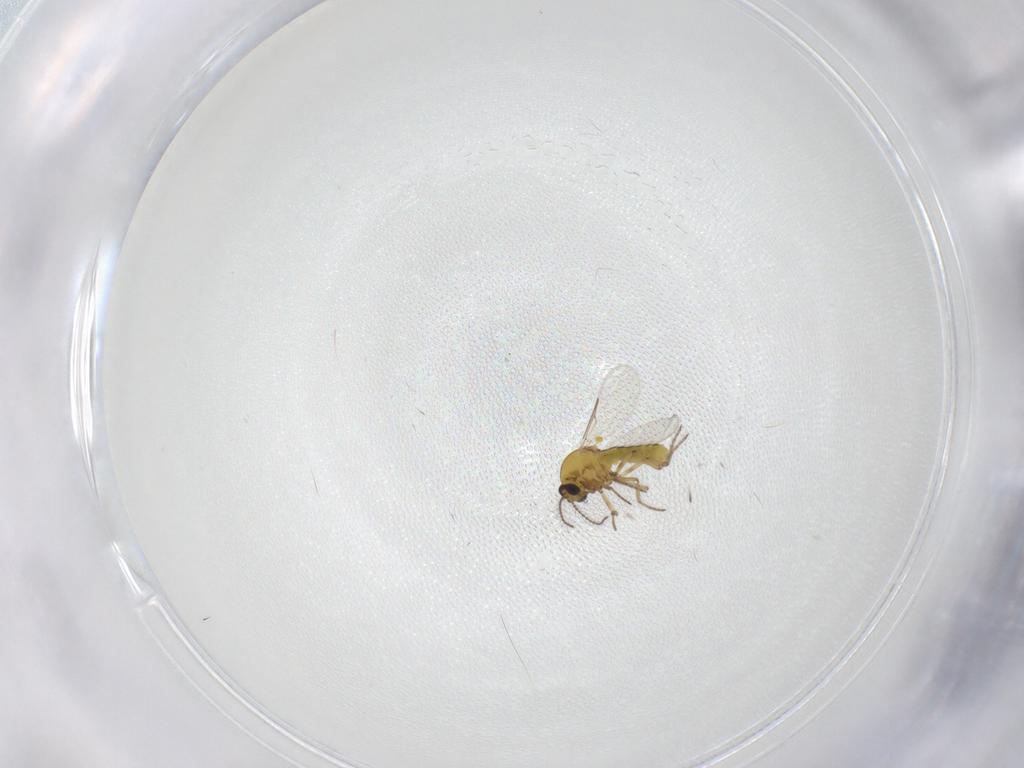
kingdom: Animalia
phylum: Arthropoda
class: Insecta
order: Diptera
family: Ceratopogonidae
